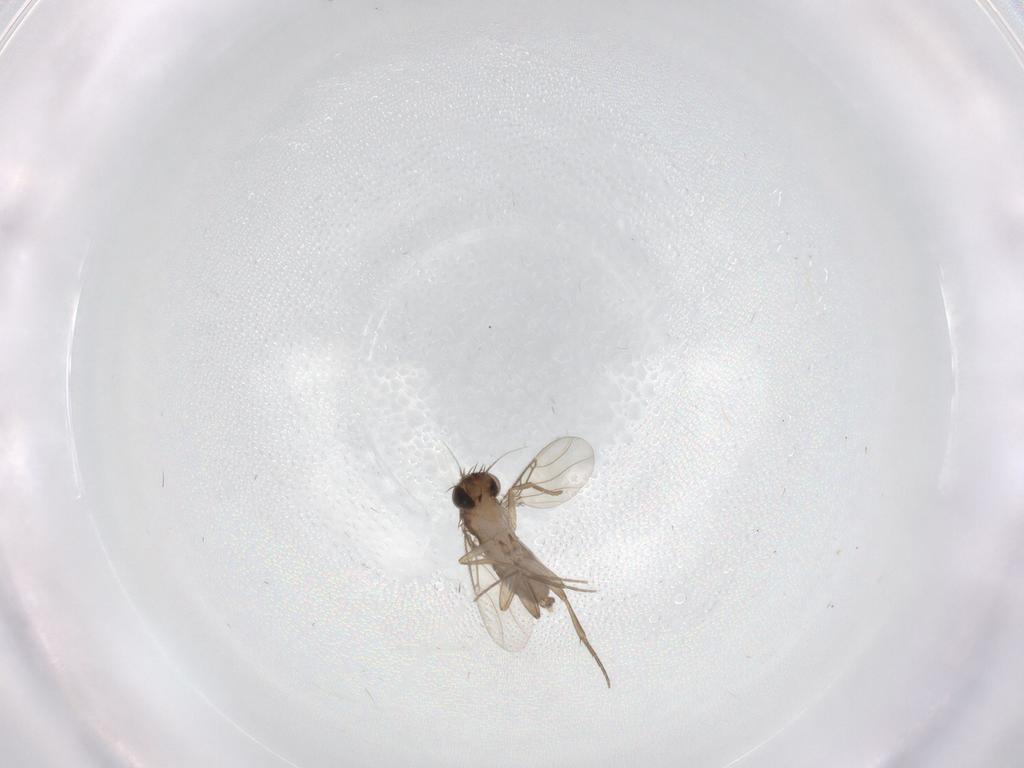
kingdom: Animalia
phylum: Arthropoda
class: Insecta
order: Diptera
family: Phoridae
